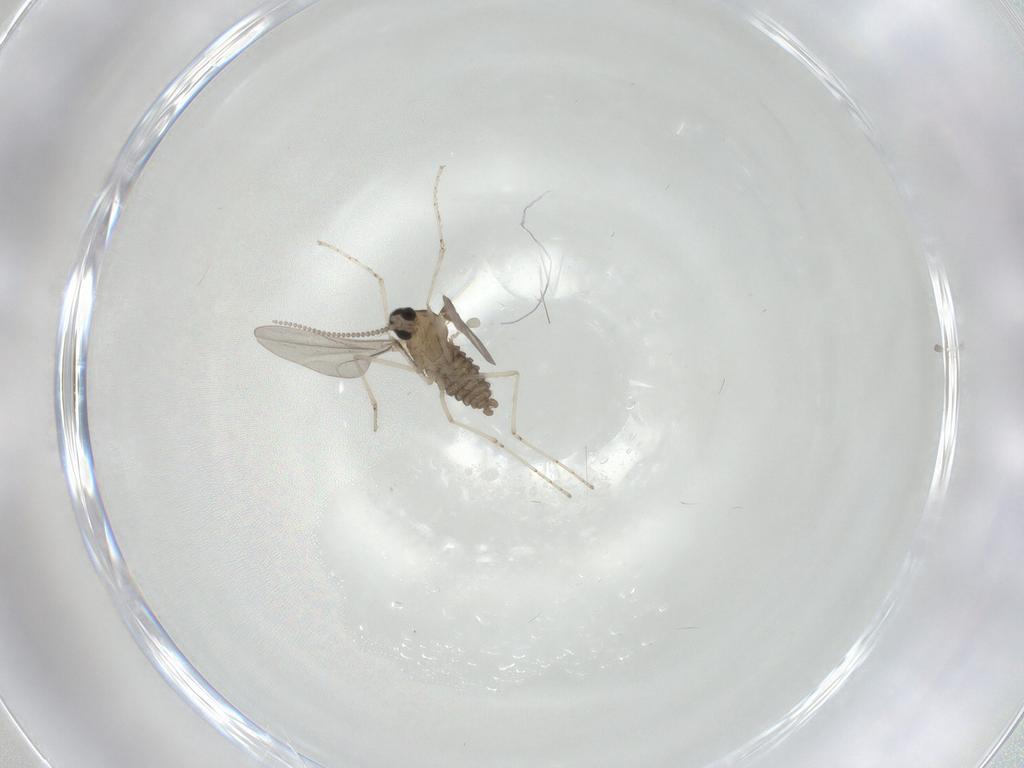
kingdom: Animalia
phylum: Arthropoda
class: Insecta
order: Diptera
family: Cecidomyiidae
